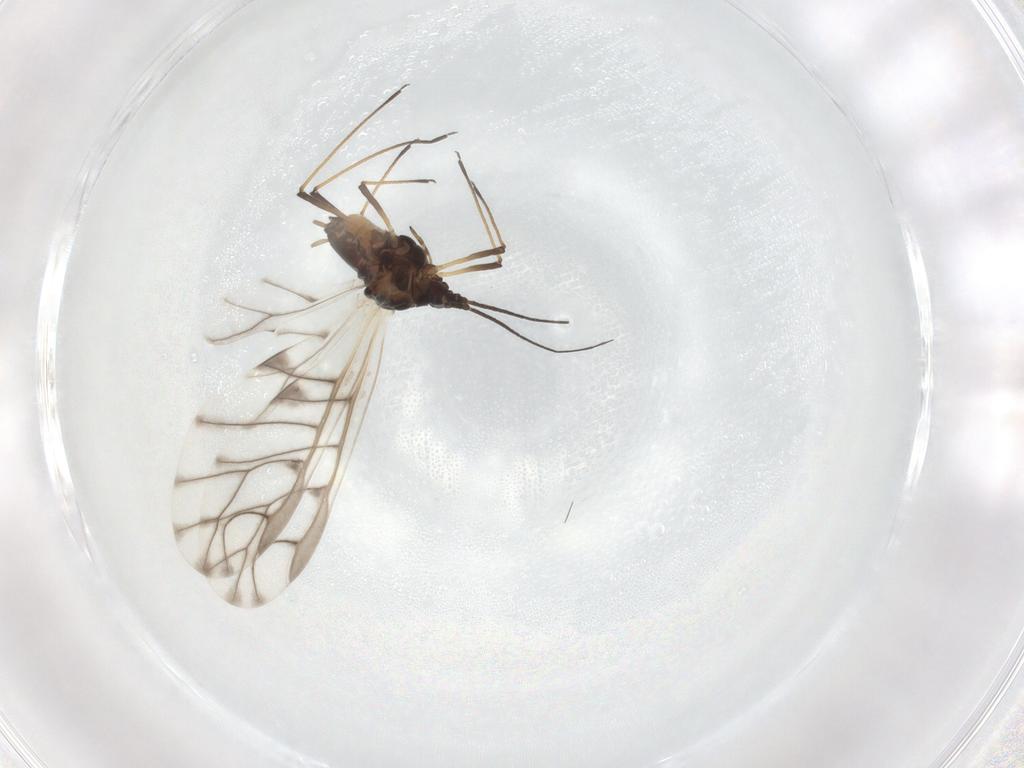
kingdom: Animalia
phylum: Arthropoda
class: Insecta
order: Hemiptera
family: Aphididae
